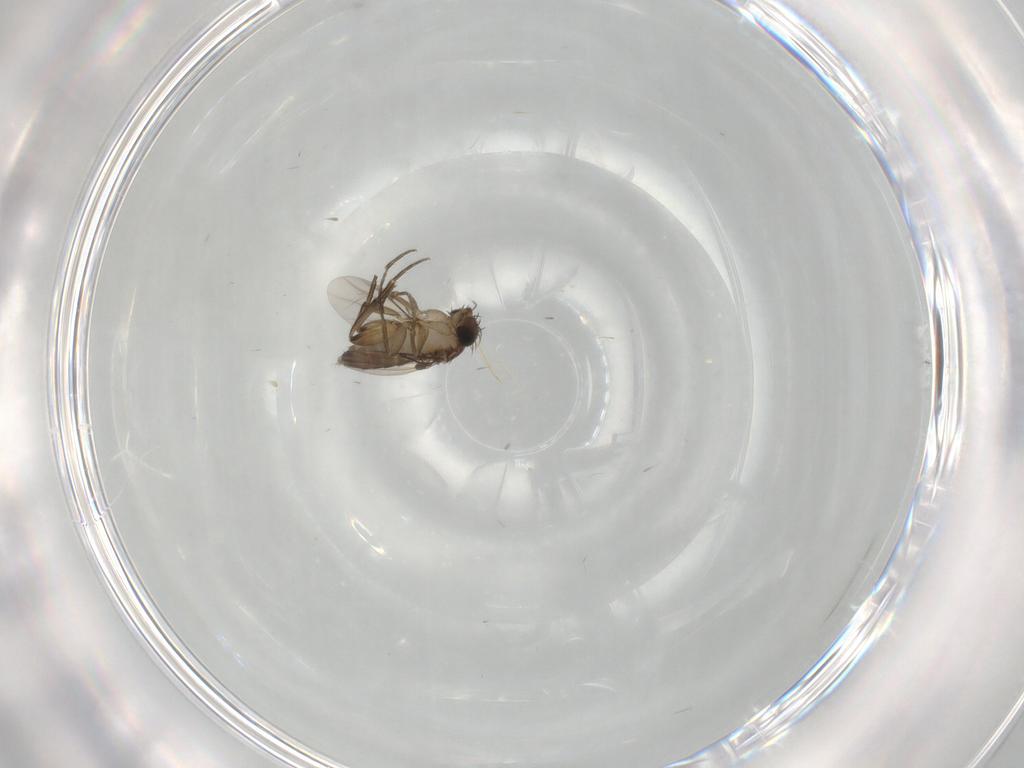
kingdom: Animalia
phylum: Arthropoda
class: Insecta
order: Diptera
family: Phoridae
